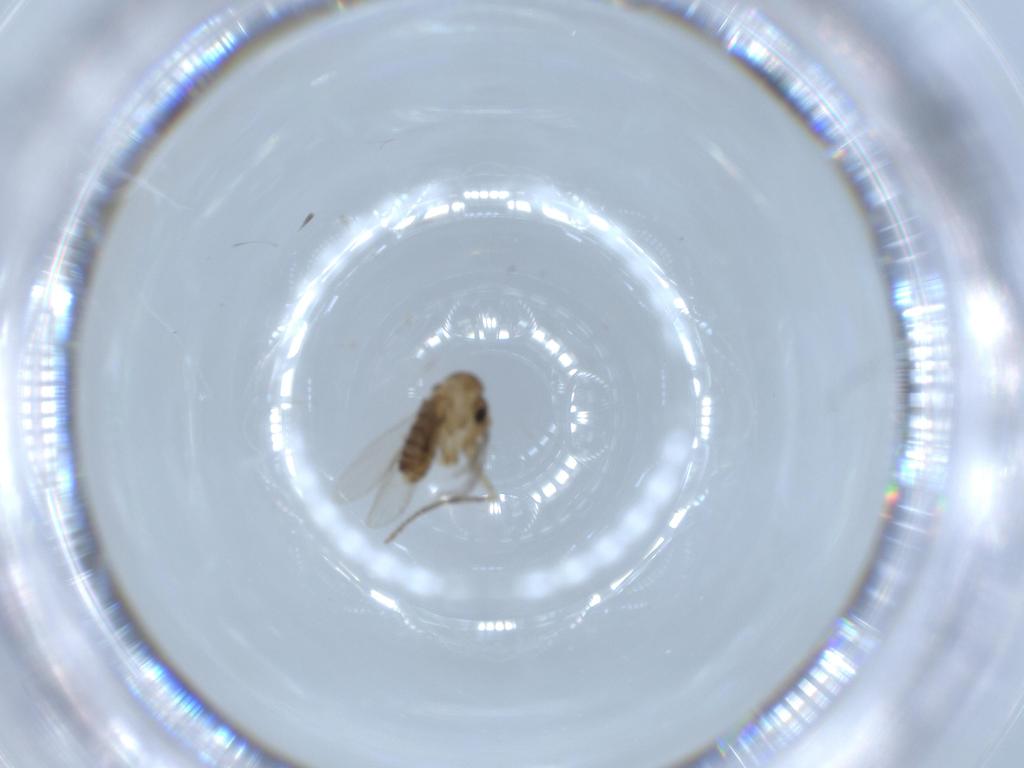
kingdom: Animalia
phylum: Arthropoda
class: Insecta
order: Diptera
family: Psychodidae
